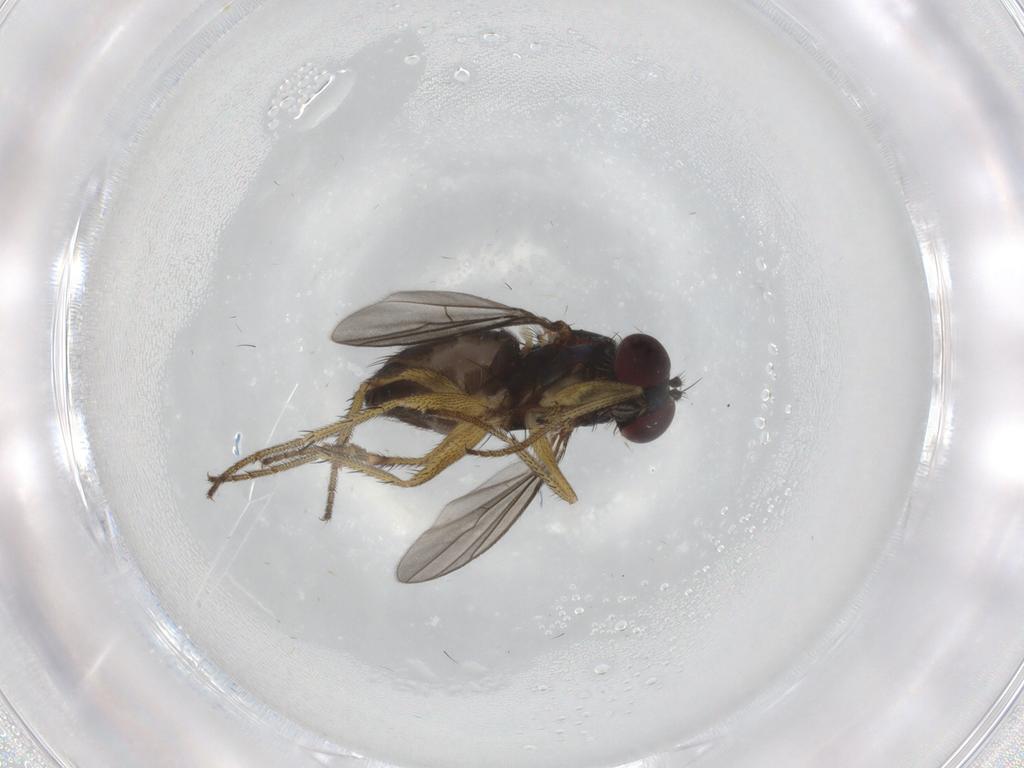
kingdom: Animalia
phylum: Arthropoda
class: Insecta
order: Diptera
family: Dolichopodidae
